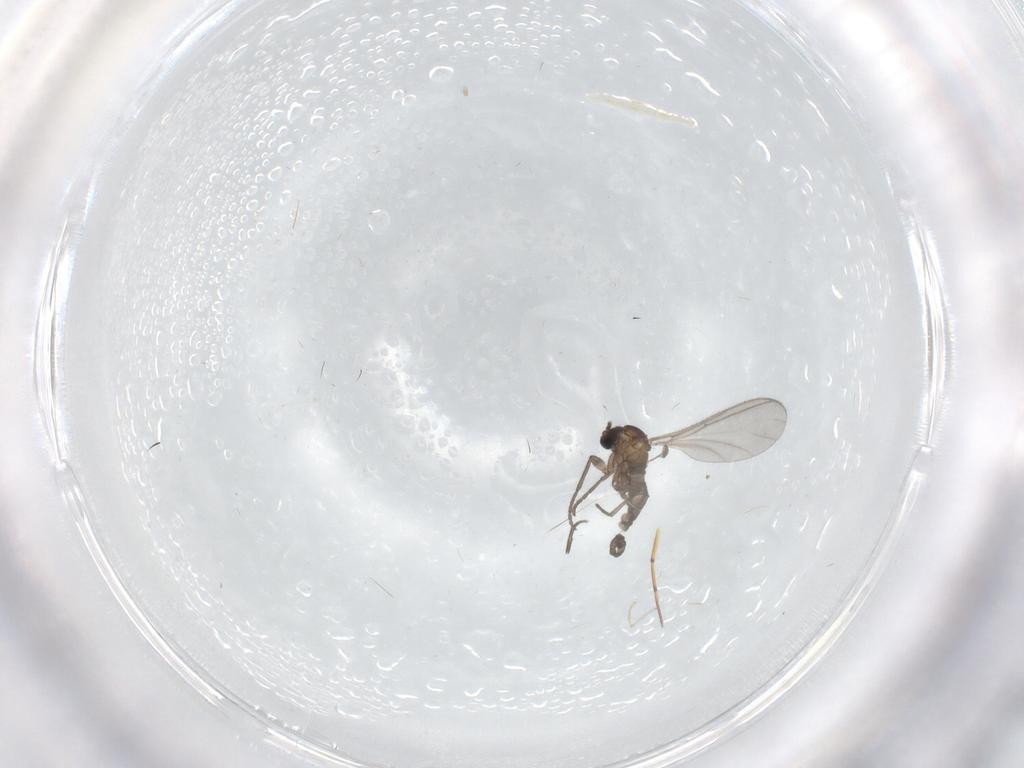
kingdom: Animalia
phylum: Arthropoda
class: Insecta
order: Diptera
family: Sciaridae
